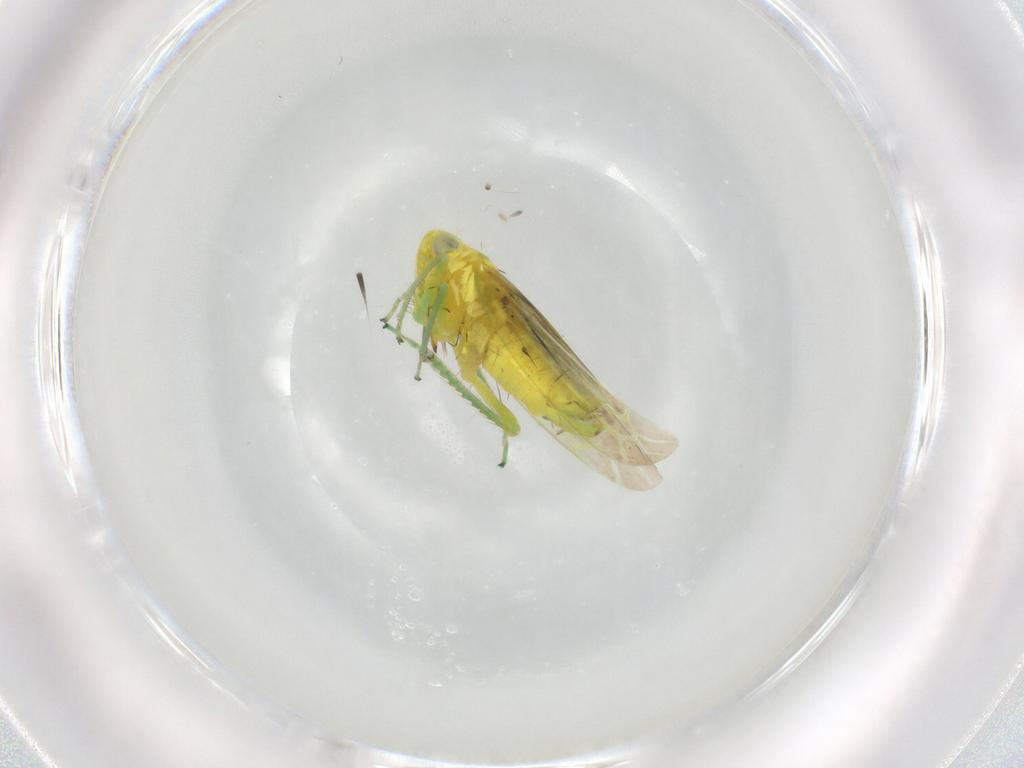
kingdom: Animalia
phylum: Arthropoda
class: Insecta
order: Hemiptera
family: Cicadellidae
